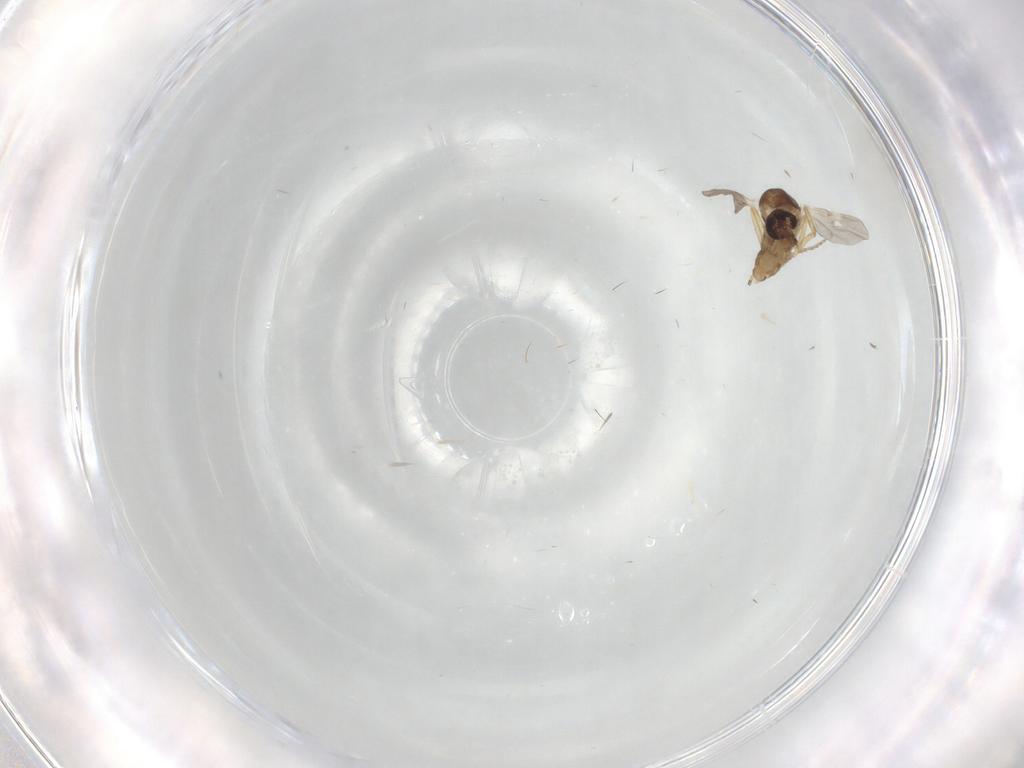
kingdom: Animalia
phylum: Arthropoda
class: Insecta
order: Diptera
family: Ceratopogonidae
